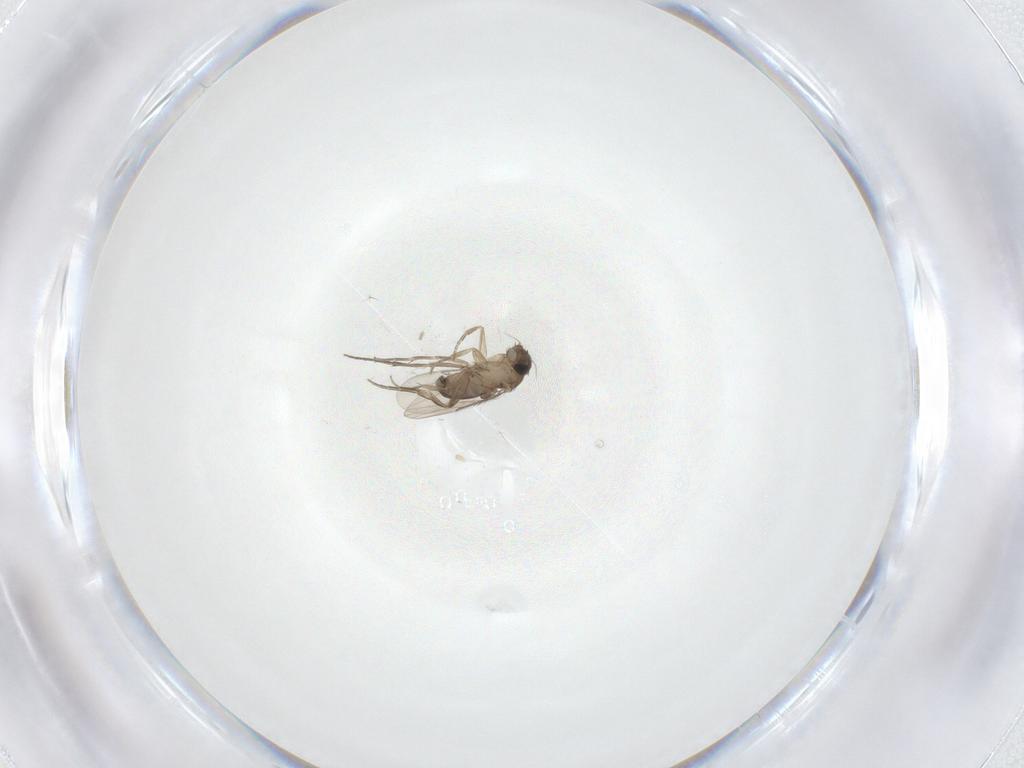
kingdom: Animalia
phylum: Arthropoda
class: Insecta
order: Diptera
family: Phoridae
